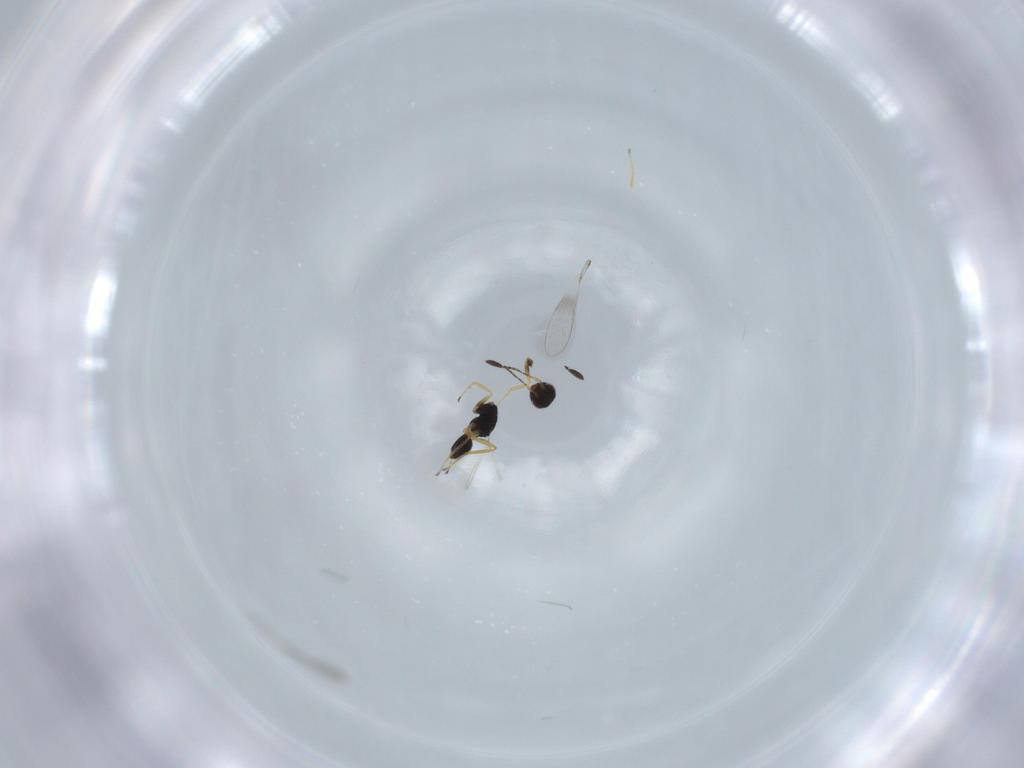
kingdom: Animalia
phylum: Arthropoda
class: Insecta
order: Hymenoptera
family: Mymaridae
